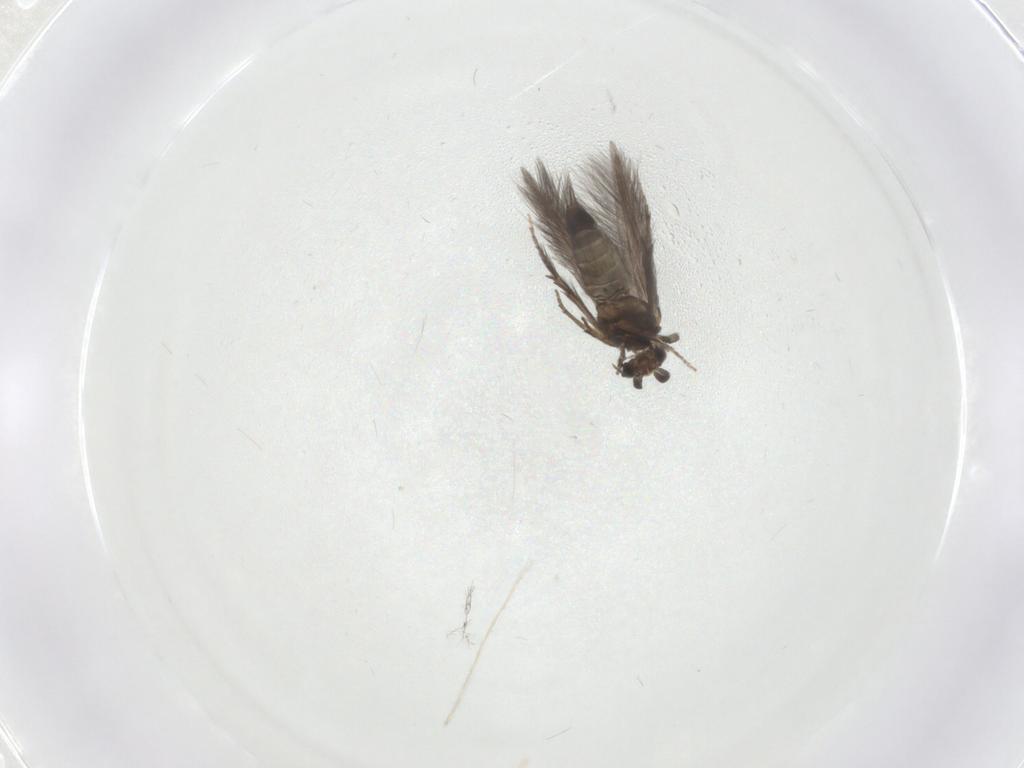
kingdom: Animalia
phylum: Arthropoda
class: Insecta
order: Trichoptera
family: Hydroptilidae
